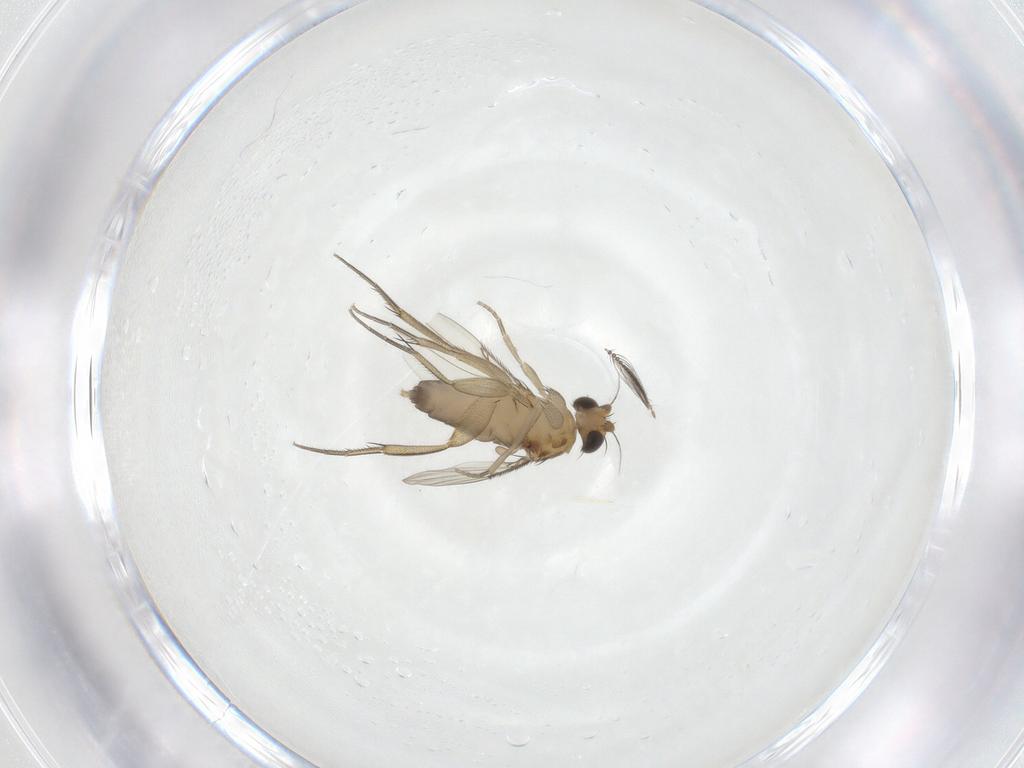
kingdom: Animalia
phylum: Arthropoda
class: Insecta
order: Diptera
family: Phoridae
